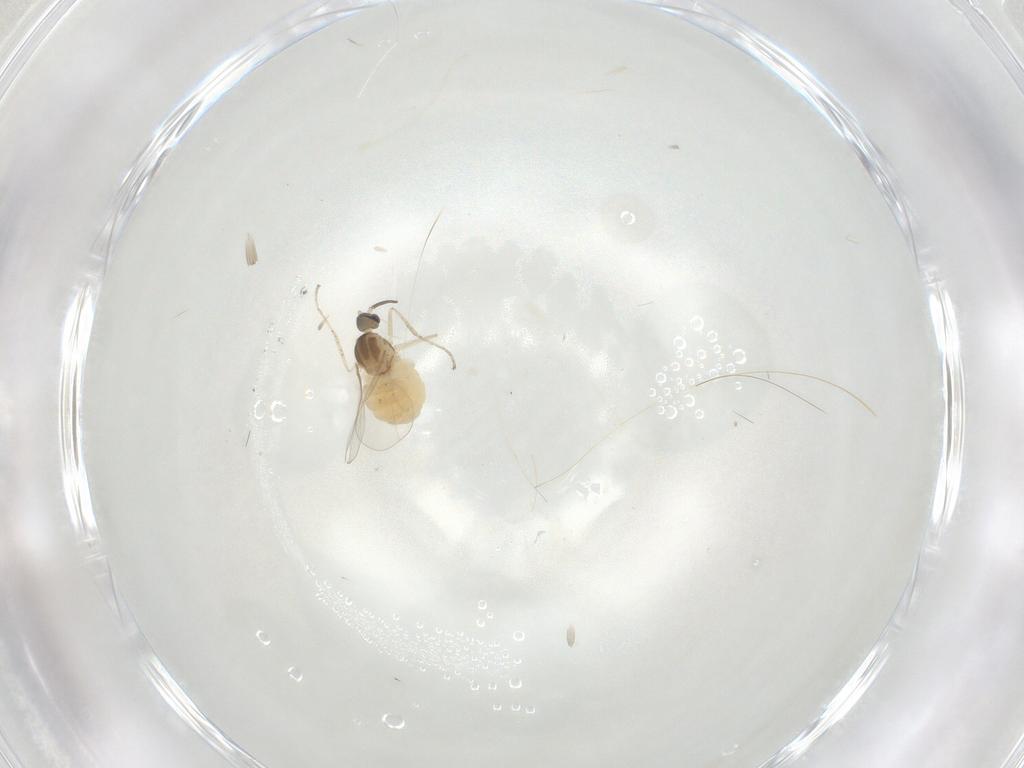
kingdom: Animalia
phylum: Arthropoda
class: Insecta
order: Diptera
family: Cecidomyiidae
